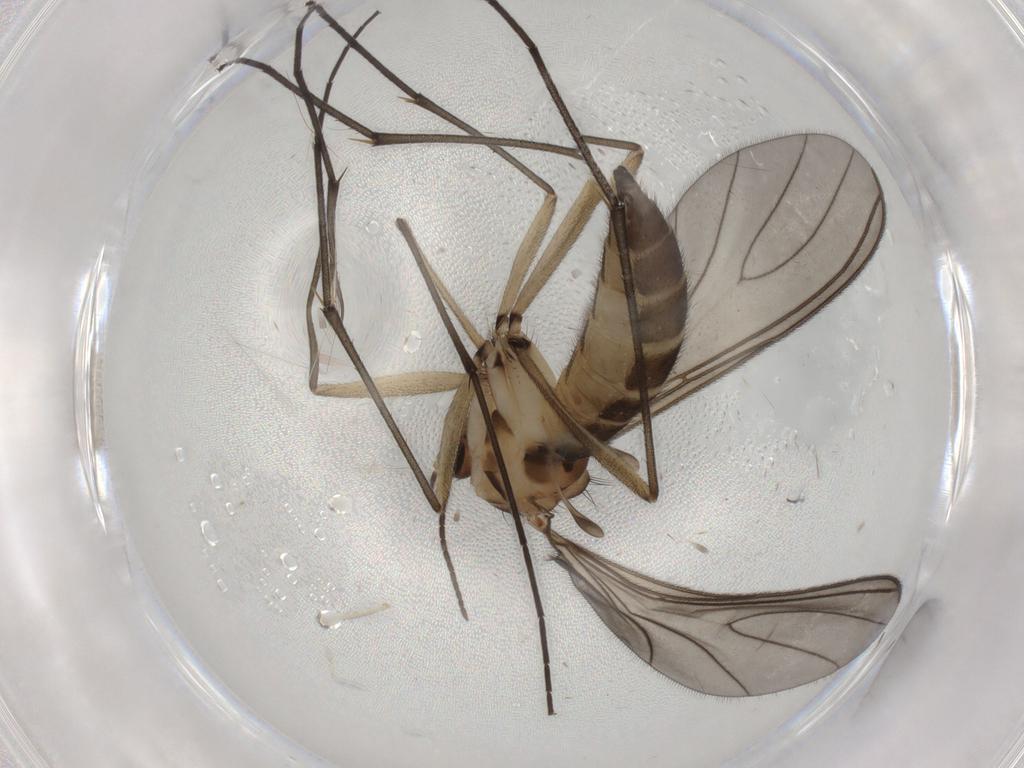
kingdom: Animalia
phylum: Arthropoda
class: Insecta
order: Diptera
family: Sciaridae
